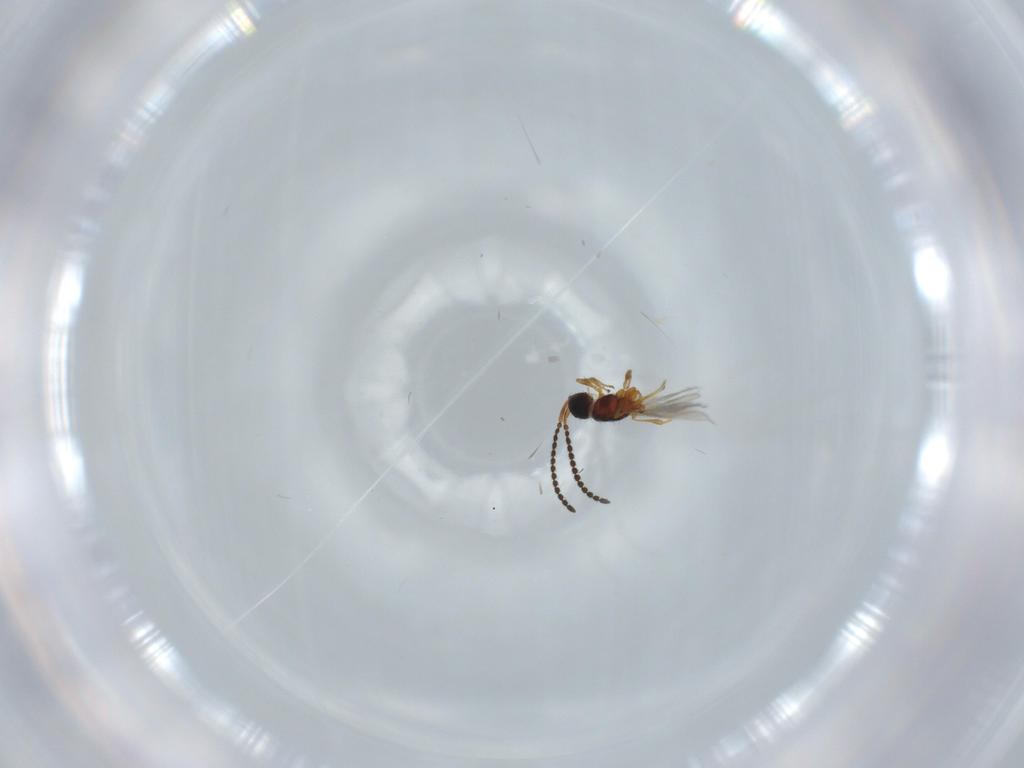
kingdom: Animalia
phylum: Arthropoda
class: Insecta
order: Hymenoptera
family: Diapriidae
